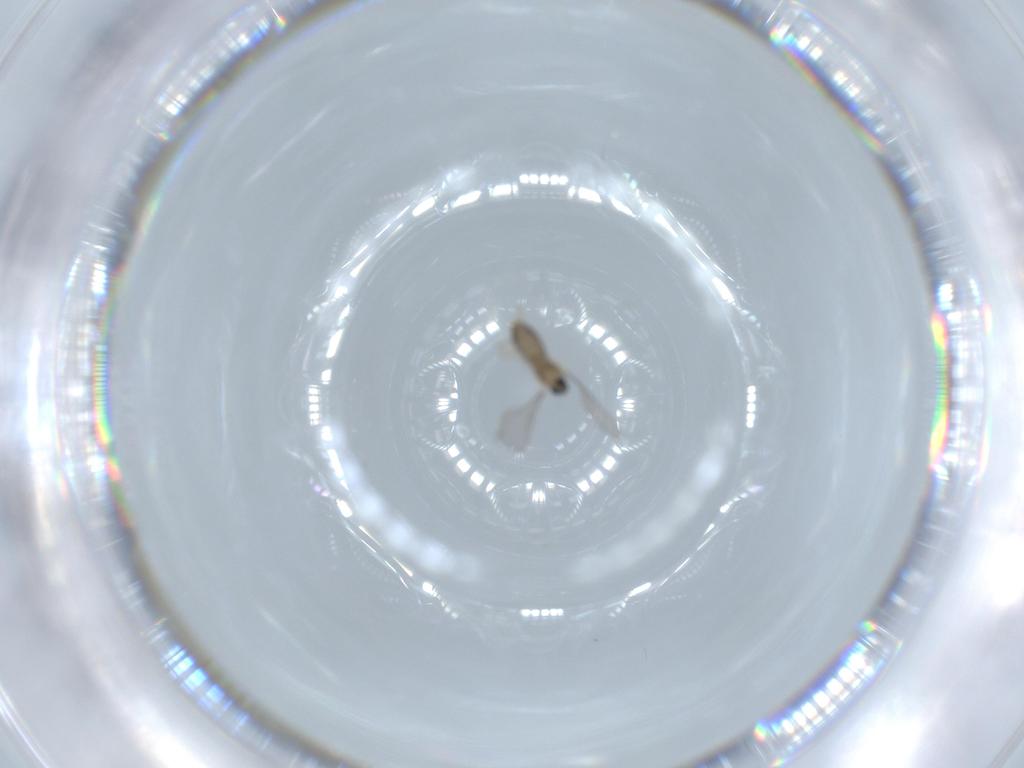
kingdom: Animalia
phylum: Arthropoda
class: Insecta
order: Diptera
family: Cecidomyiidae
